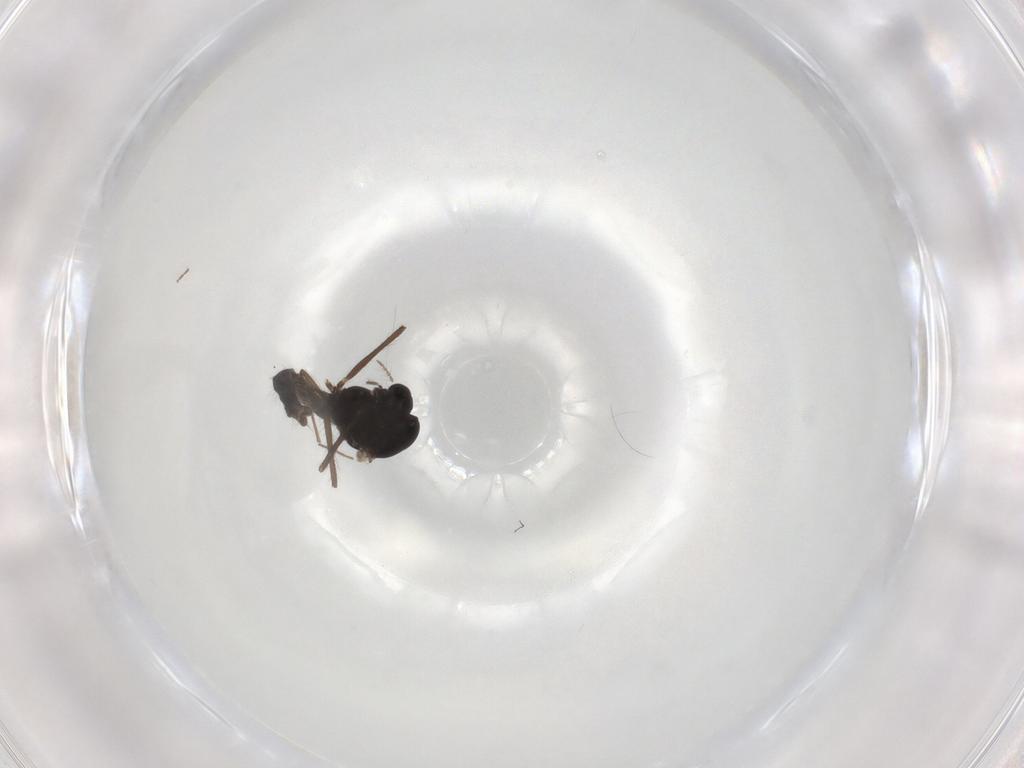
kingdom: Animalia
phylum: Arthropoda
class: Insecta
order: Diptera
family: Chironomidae
